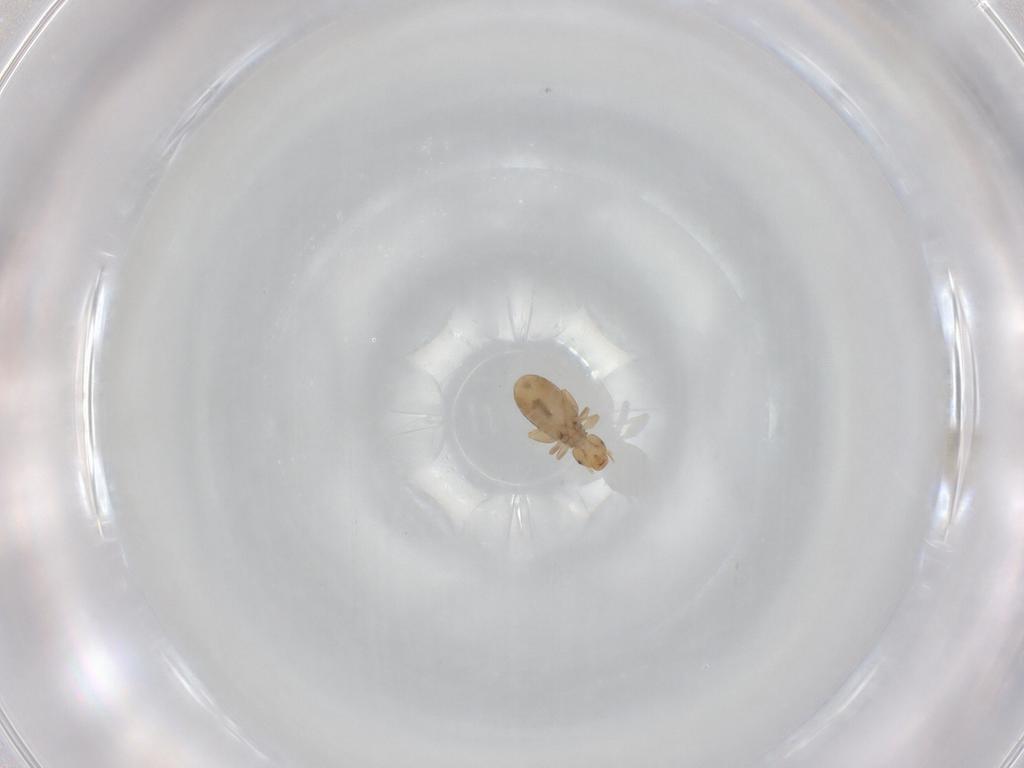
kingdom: Animalia
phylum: Arthropoda
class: Insecta
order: Psocodea
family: Liposcelididae
